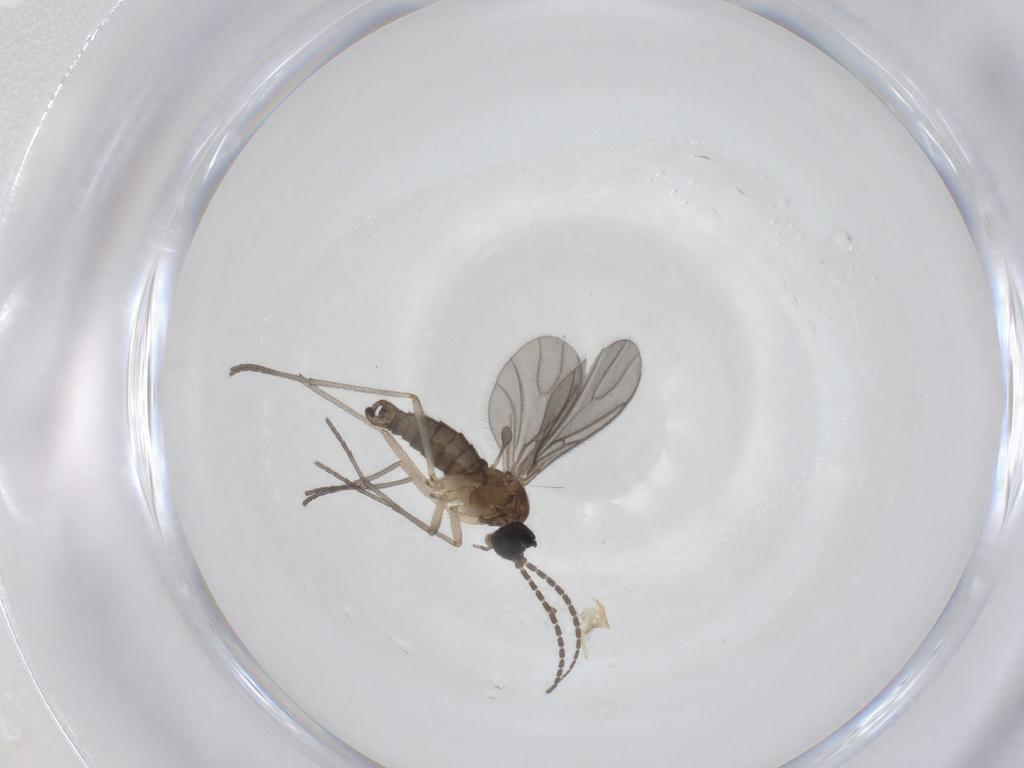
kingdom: Animalia
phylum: Arthropoda
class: Insecta
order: Diptera
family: Sciaridae
